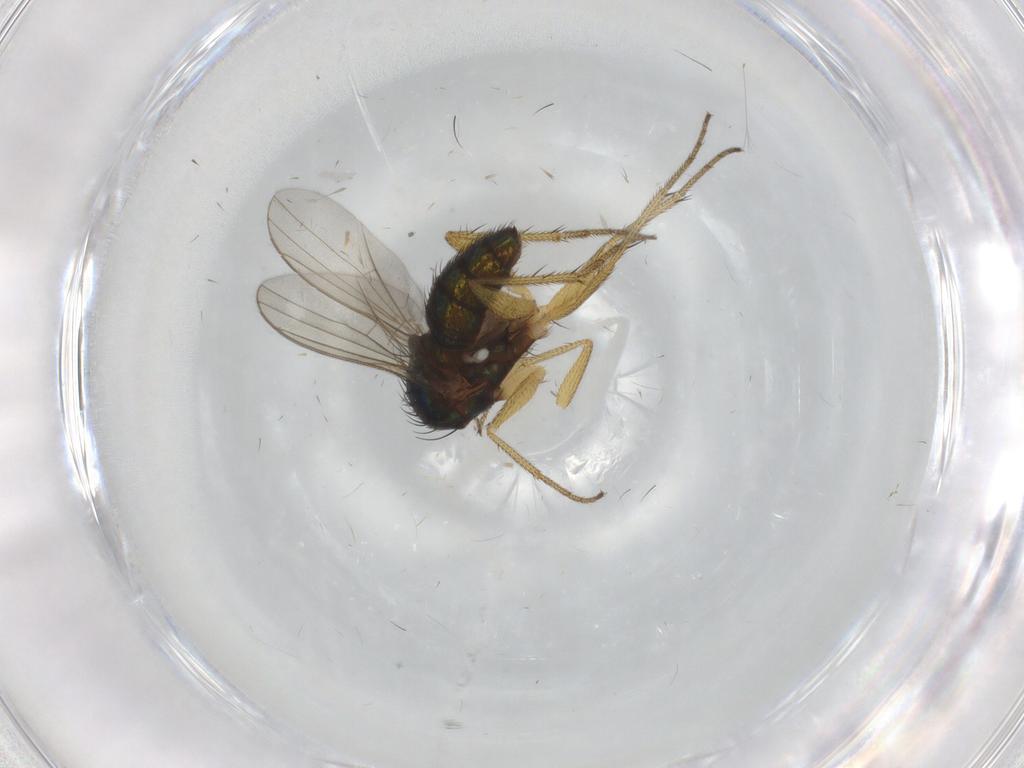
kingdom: Animalia
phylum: Arthropoda
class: Insecta
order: Diptera
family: Dolichopodidae
